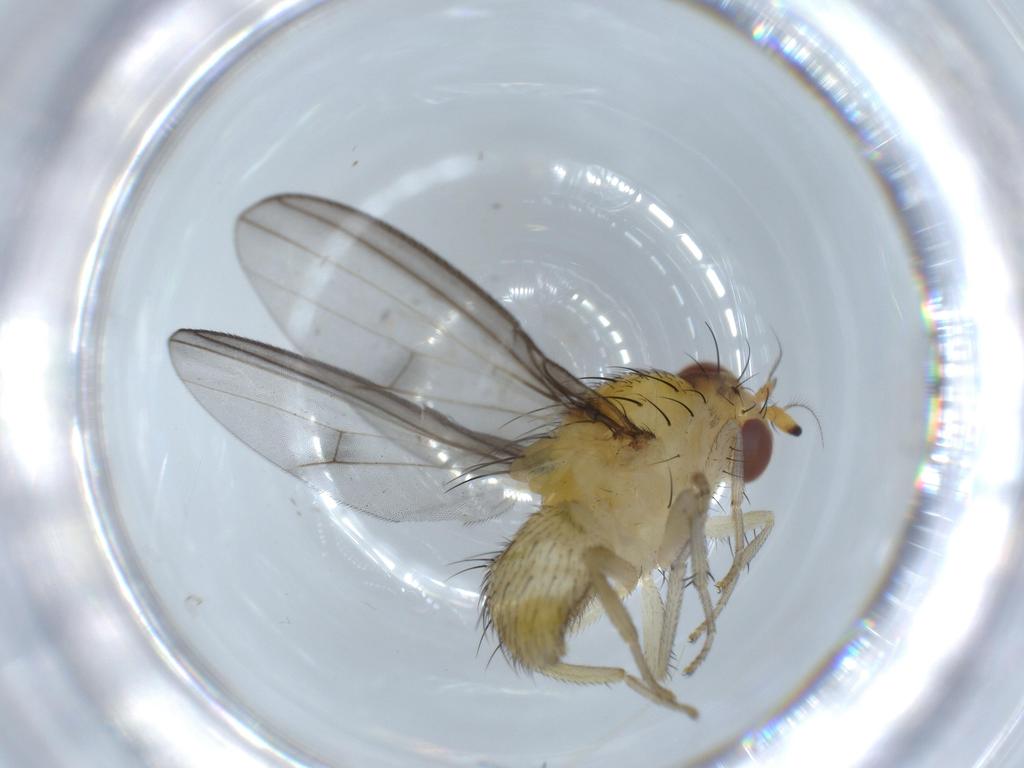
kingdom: Animalia
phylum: Arthropoda
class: Insecta
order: Diptera
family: Lauxaniidae
